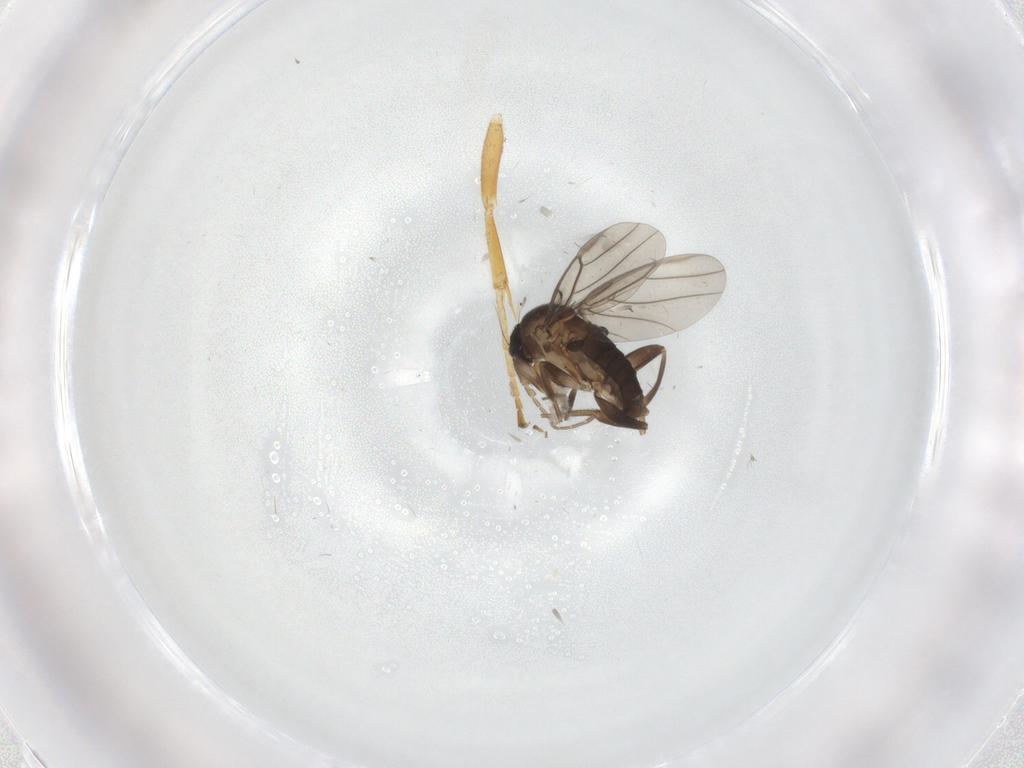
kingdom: Animalia
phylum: Arthropoda
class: Insecta
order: Diptera
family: Phoridae
